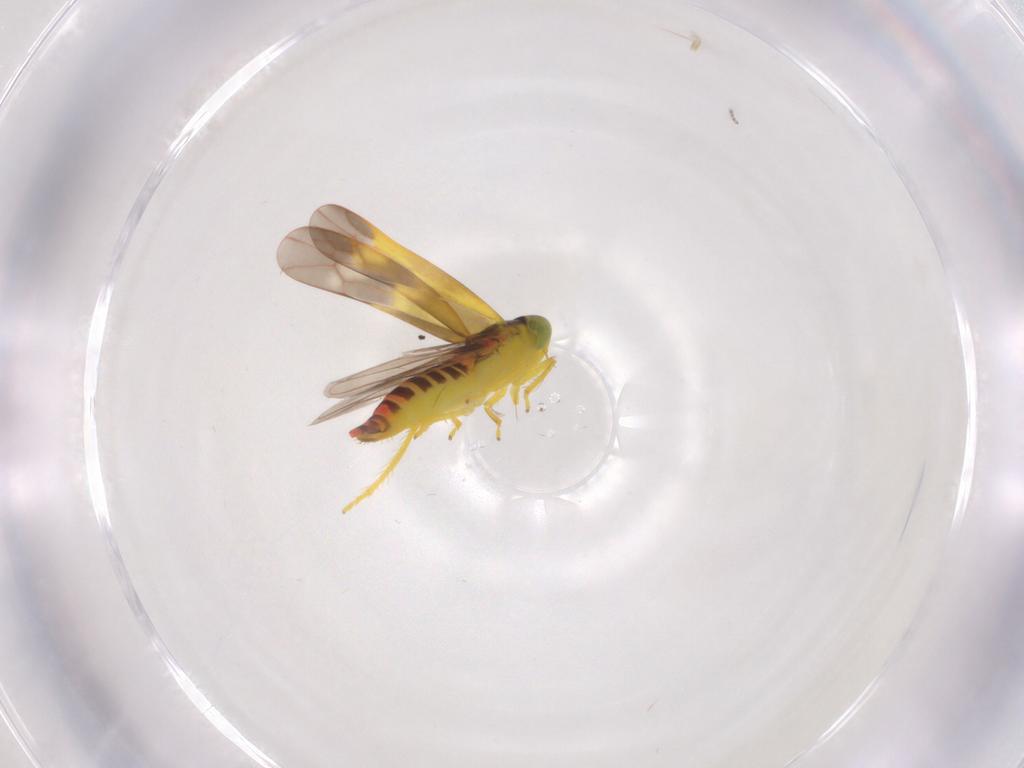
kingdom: Animalia
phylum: Arthropoda
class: Insecta
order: Hemiptera
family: Cicadellidae
